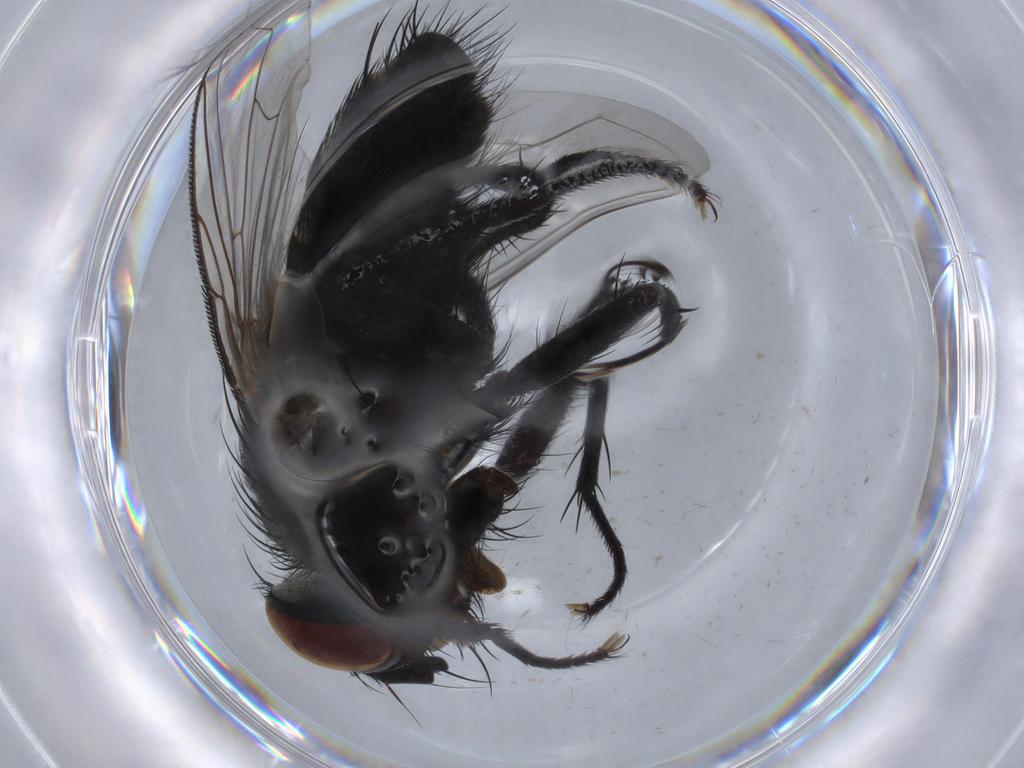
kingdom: Animalia
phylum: Arthropoda
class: Insecta
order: Diptera
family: Tachinidae
